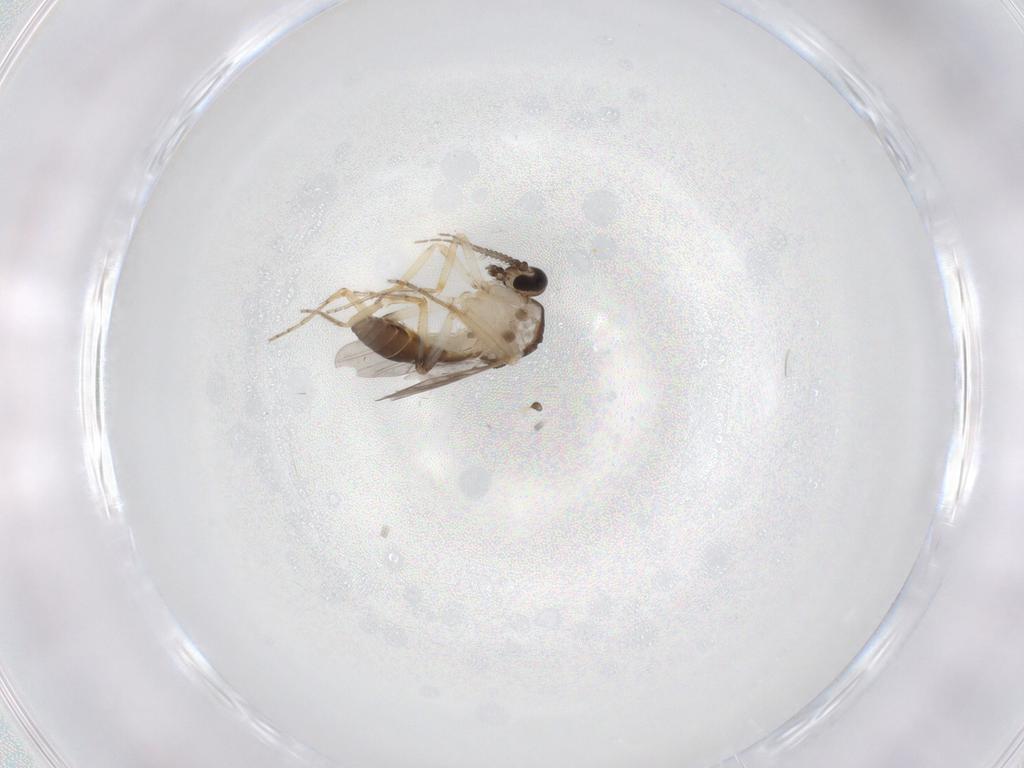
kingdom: Animalia
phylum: Arthropoda
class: Insecta
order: Diptera
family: Ceratopogonidae
